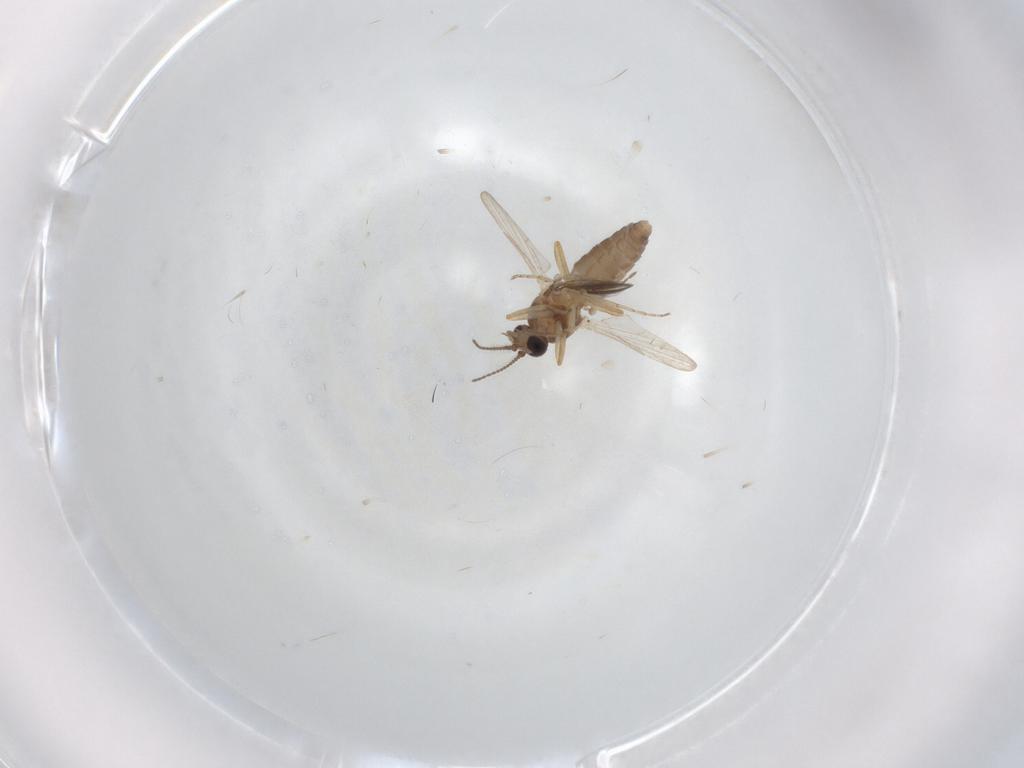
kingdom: Animalia
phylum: Arthropoda
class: Insecta
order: Diptera
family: Ceratopogonidae
